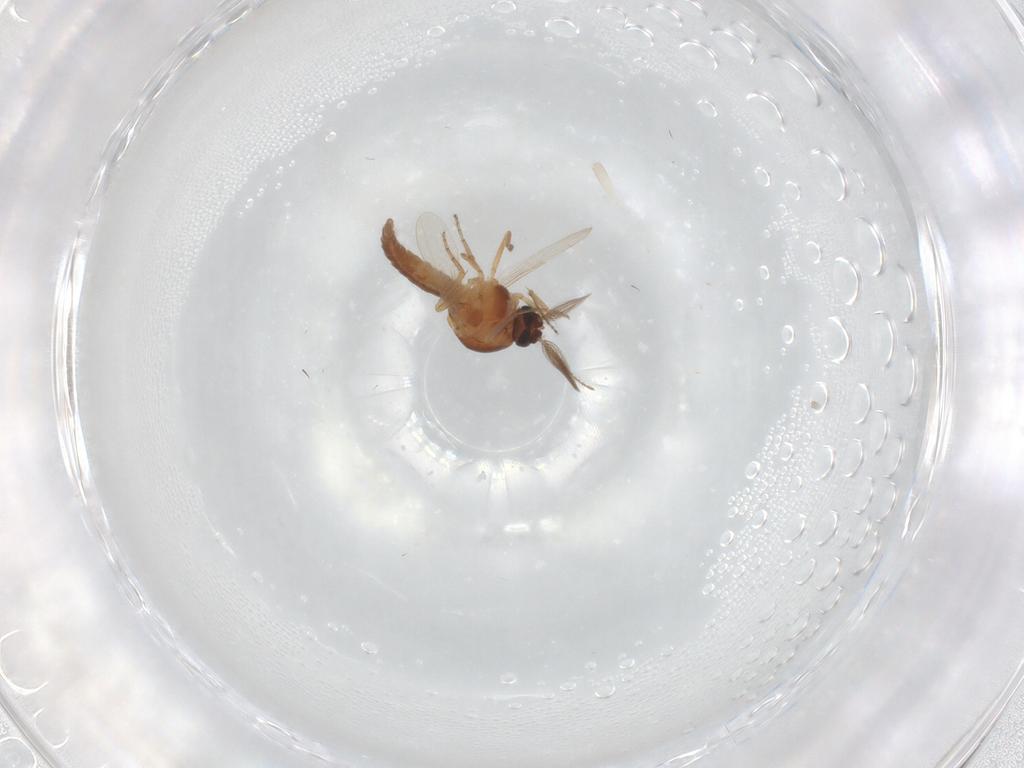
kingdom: Animalia
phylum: Arthropoda
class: Insecta
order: Diptera
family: Ceratopogonidae
